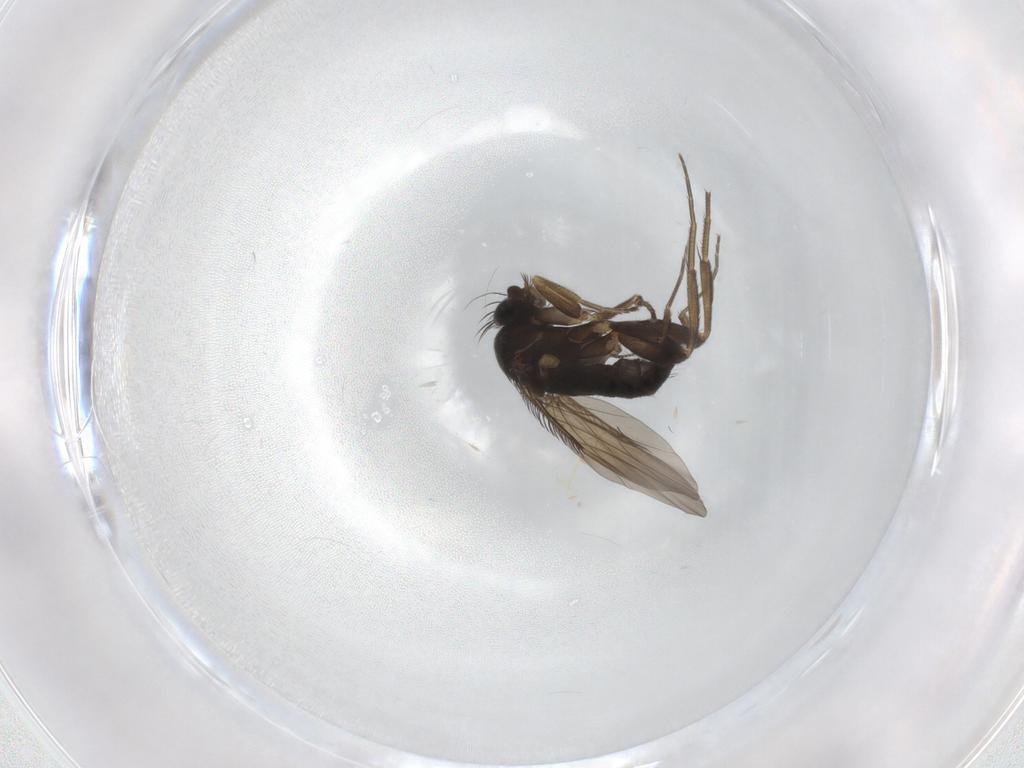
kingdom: Animalia
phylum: Arthropoda
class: Insecta
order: Diptera
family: Phoridae
